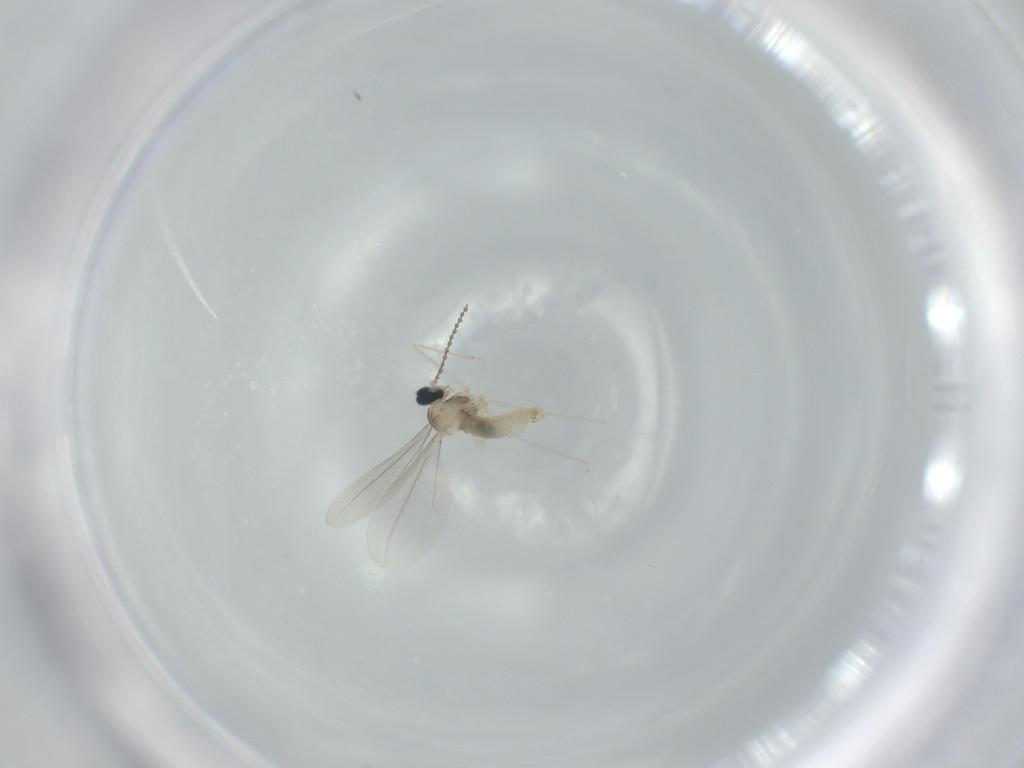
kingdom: Animalia
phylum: Arthropoda
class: Insecta
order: Diptera
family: Cecidomyiidae
